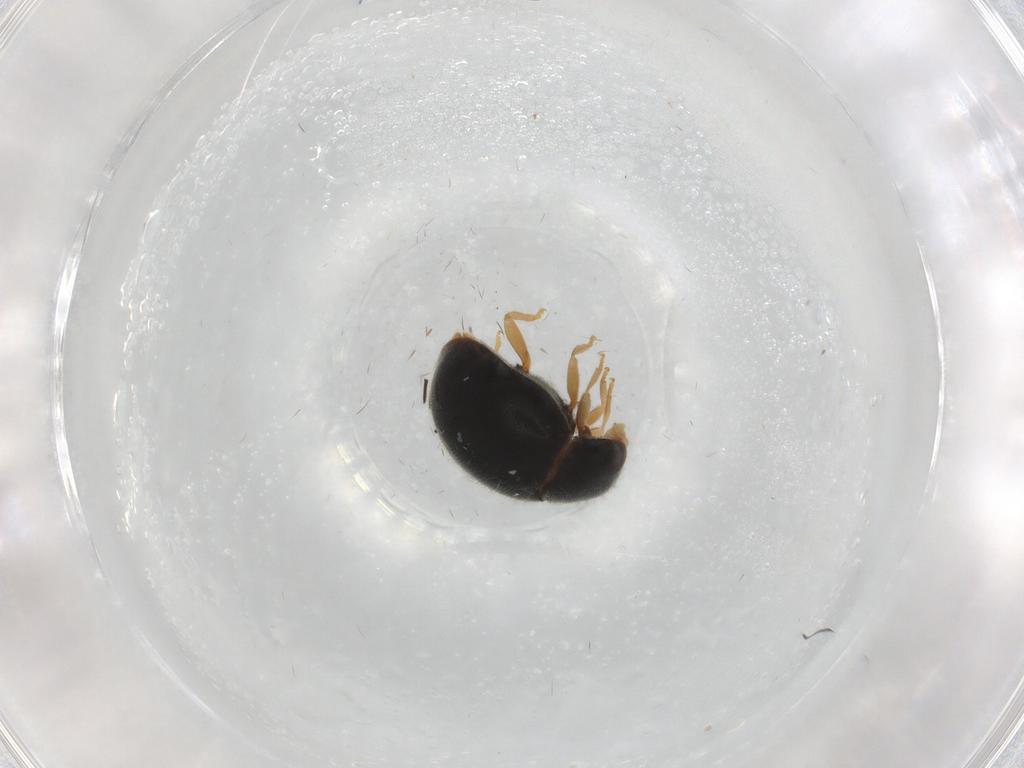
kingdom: Animalia
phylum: Arthropoda
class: Insecta
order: Coleoptera
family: Coccinellidae
